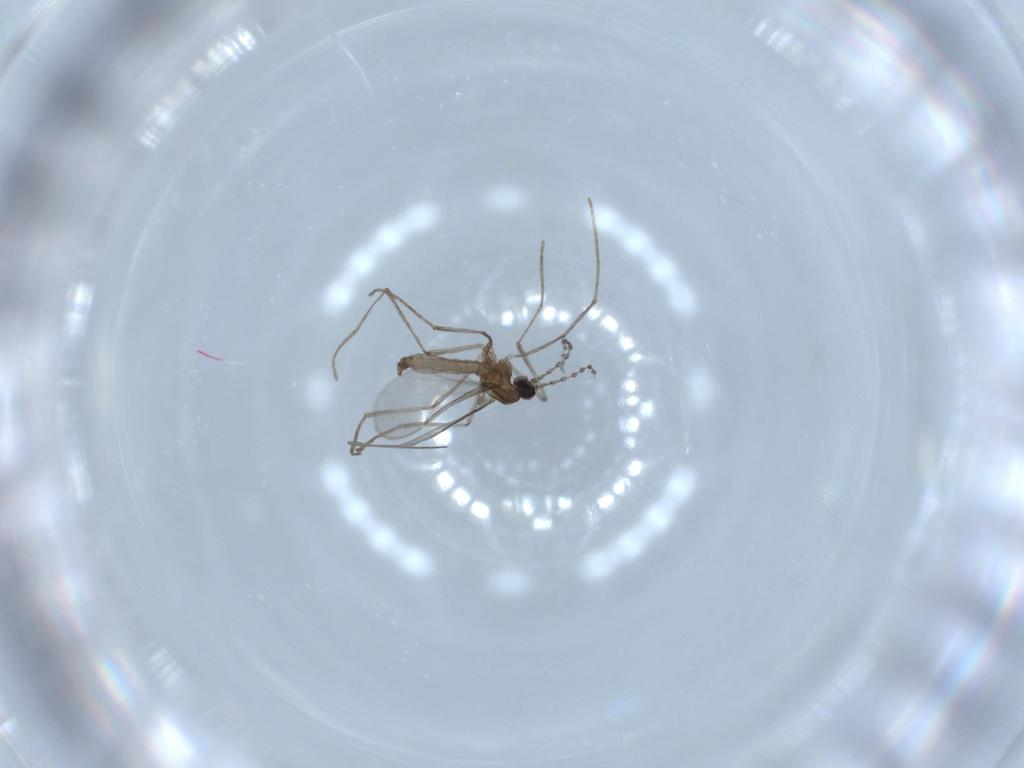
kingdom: Animalia
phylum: Arthropoda
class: Insecta
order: Diptera
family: Cecidomyiidae
